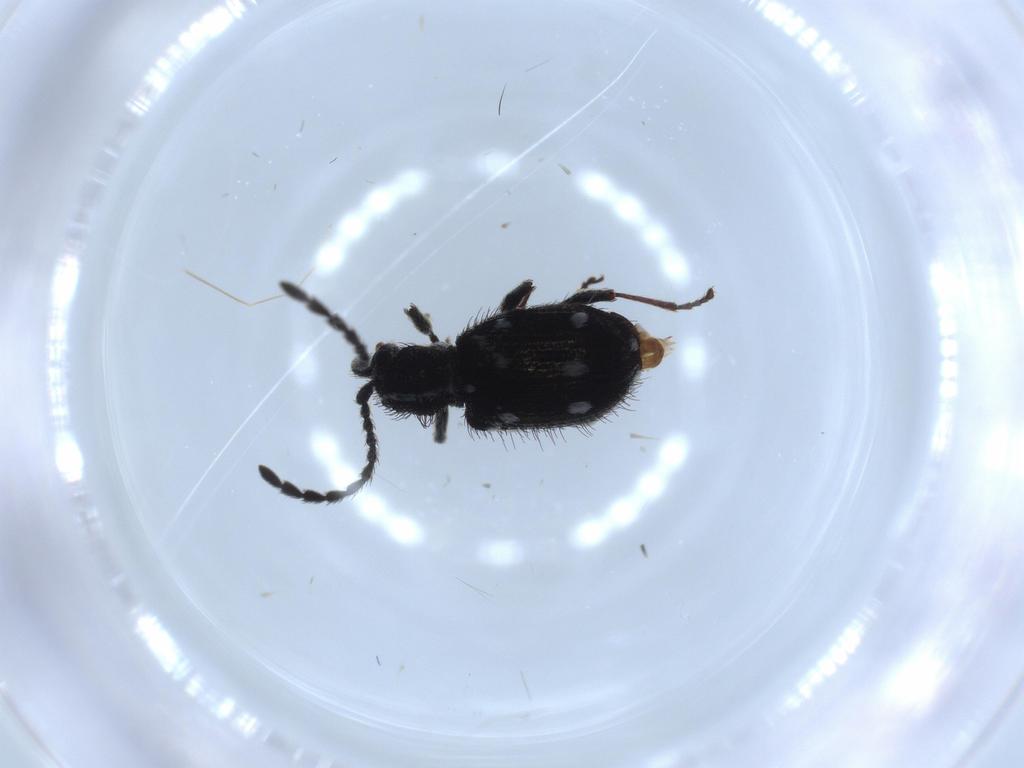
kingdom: Animalia
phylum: Arthropoda
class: Insecta
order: Coleoptera
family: Ptinidae
